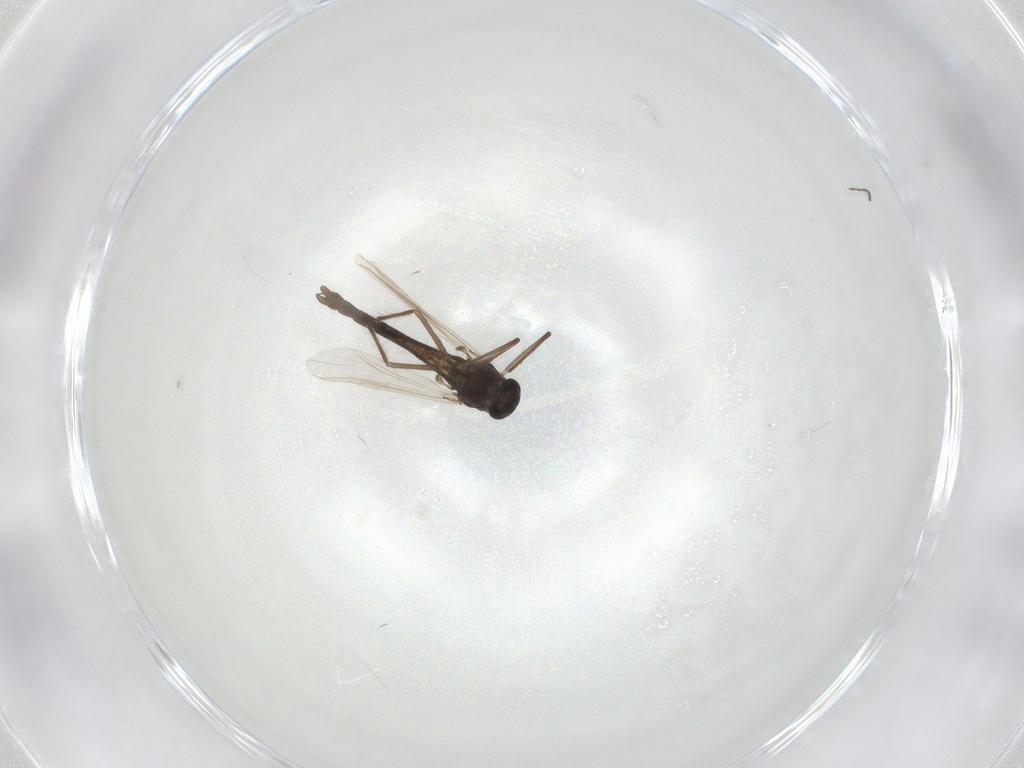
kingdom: Animalia
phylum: Arthropoda
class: Insecta
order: Diptera
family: Chironomidae
